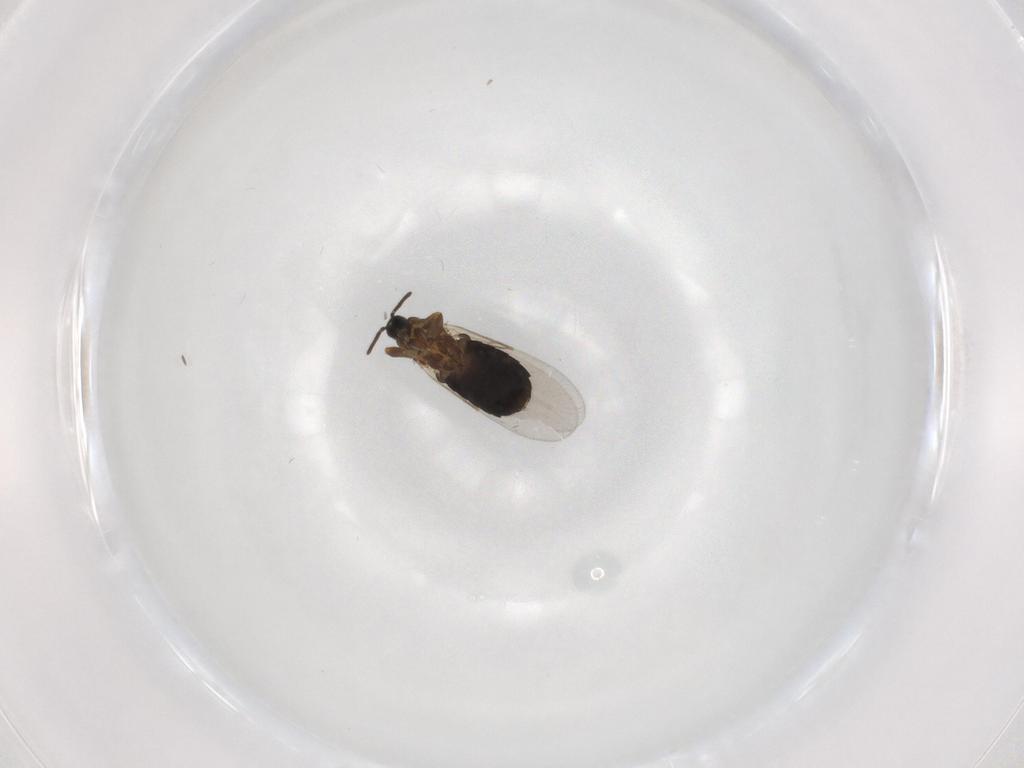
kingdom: Animalia
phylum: Arthropoda
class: Insecta
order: Diptera
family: Scatopsidae
